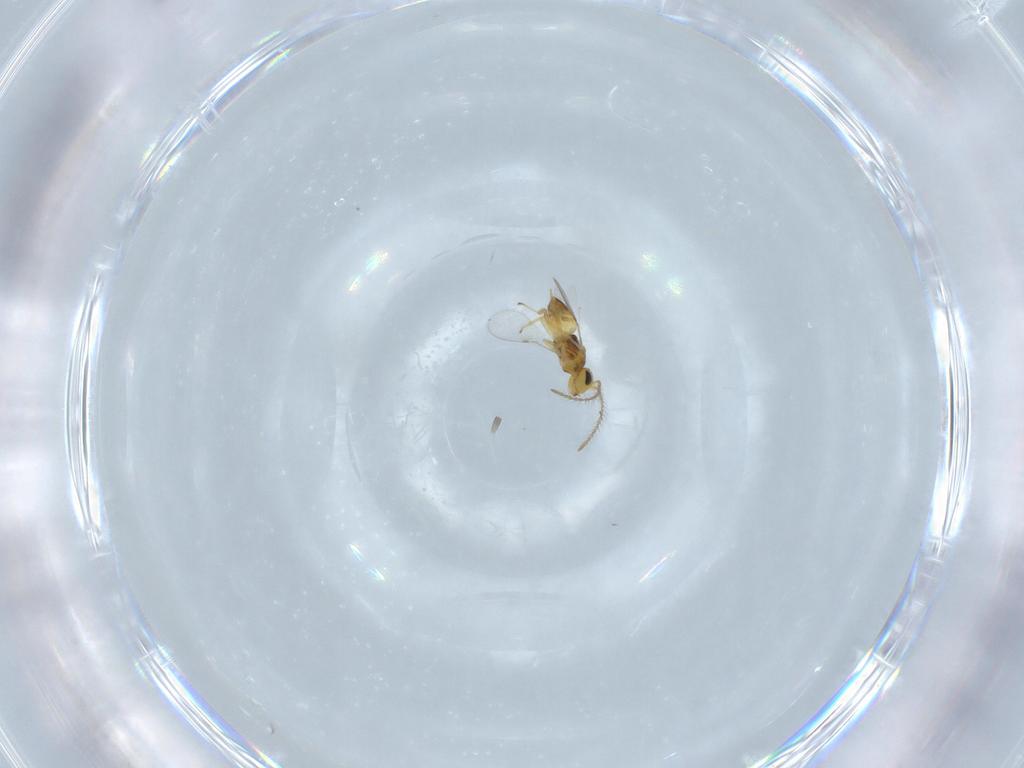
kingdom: Animalia
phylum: Arthropoda
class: Insecta
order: Hymenoptera
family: Encyrtidae
